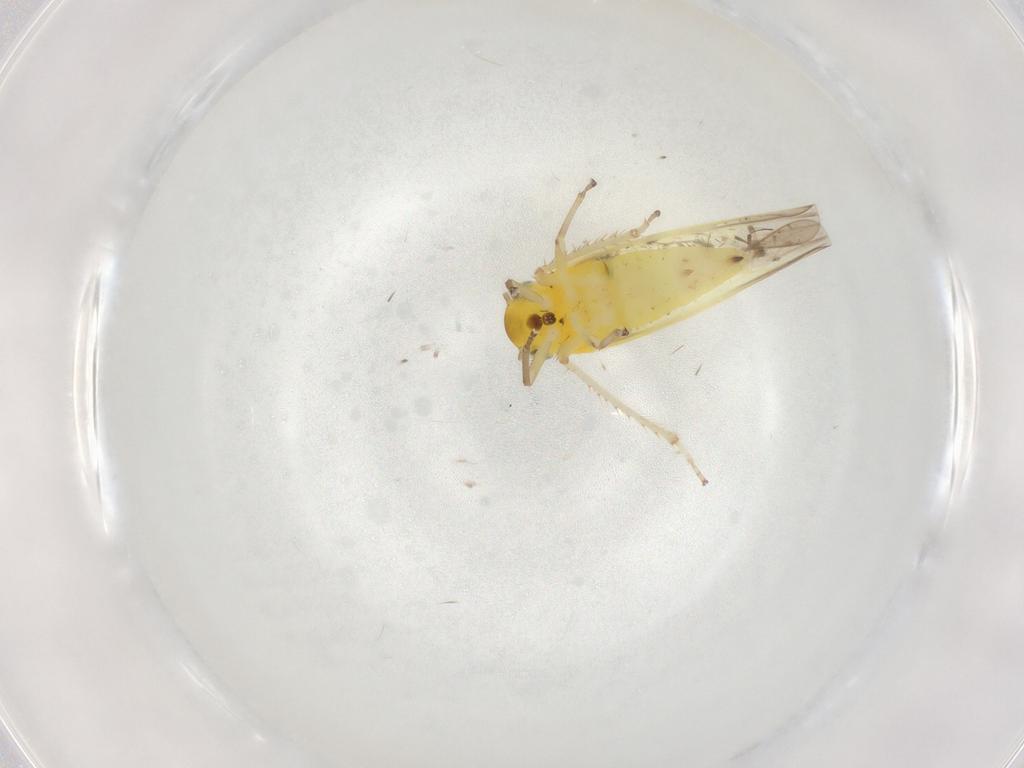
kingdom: Animalia
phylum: Arthropoda
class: Insecta
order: Hemiptera
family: Cicadellidae
